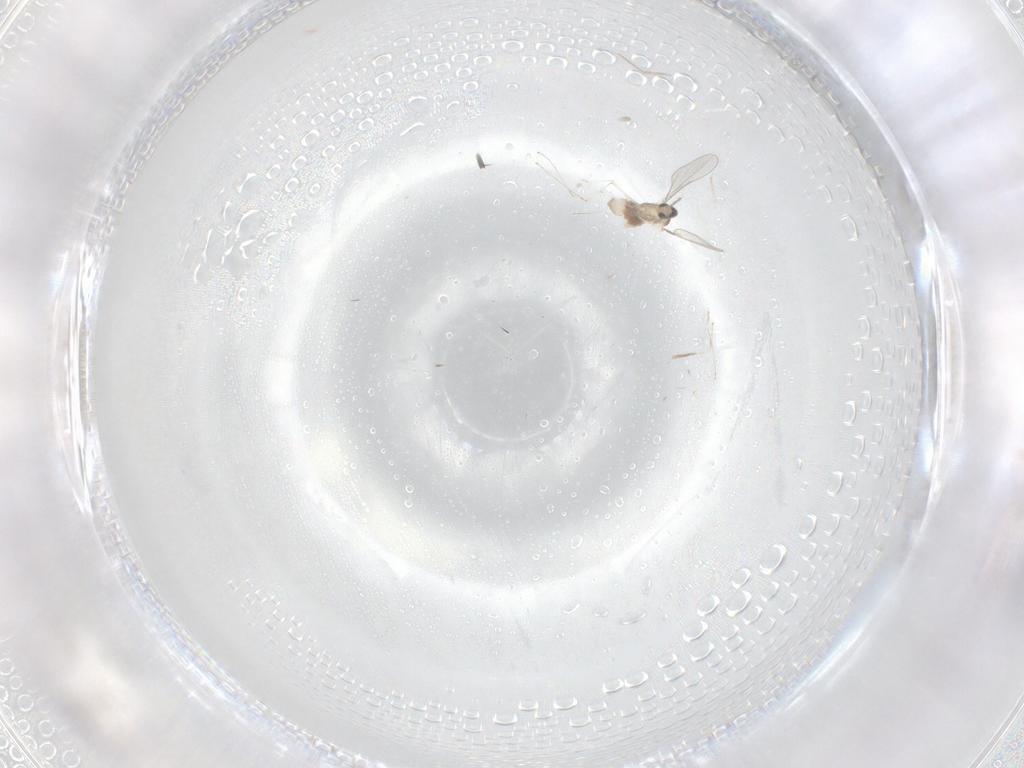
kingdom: Animalia
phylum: Arthropoda
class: Insecta
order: Diptera
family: Cecidomyiidae
